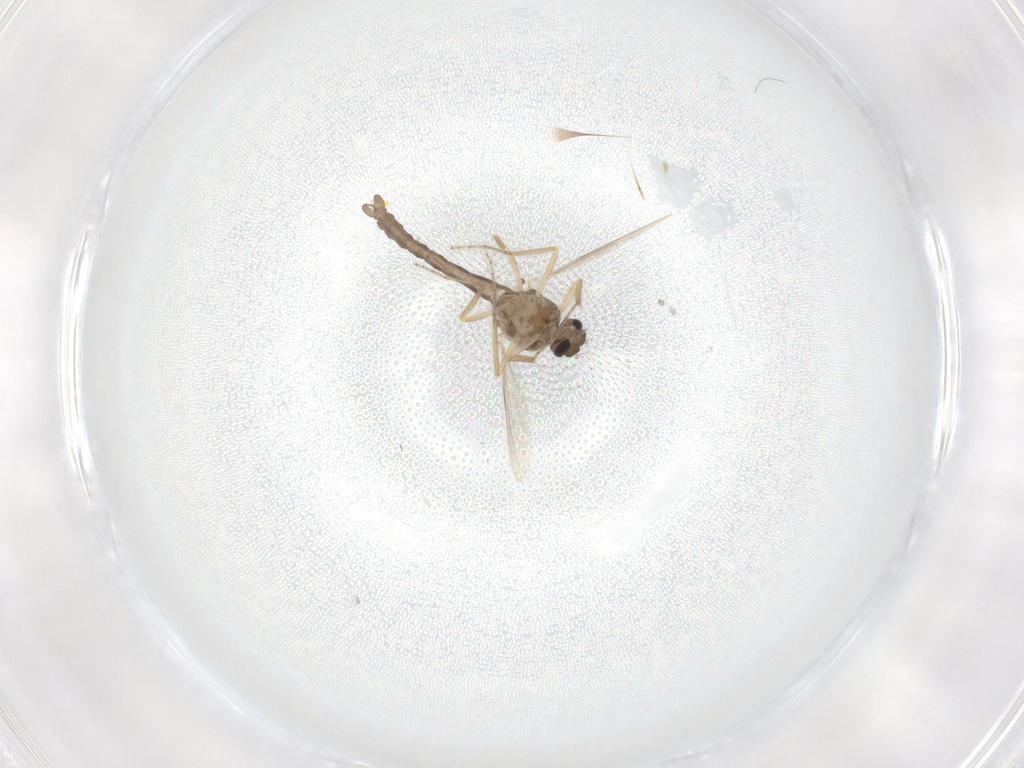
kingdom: Animalia
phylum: Arthropoda
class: Insecta
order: Diptera
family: Ceratopogonidae
